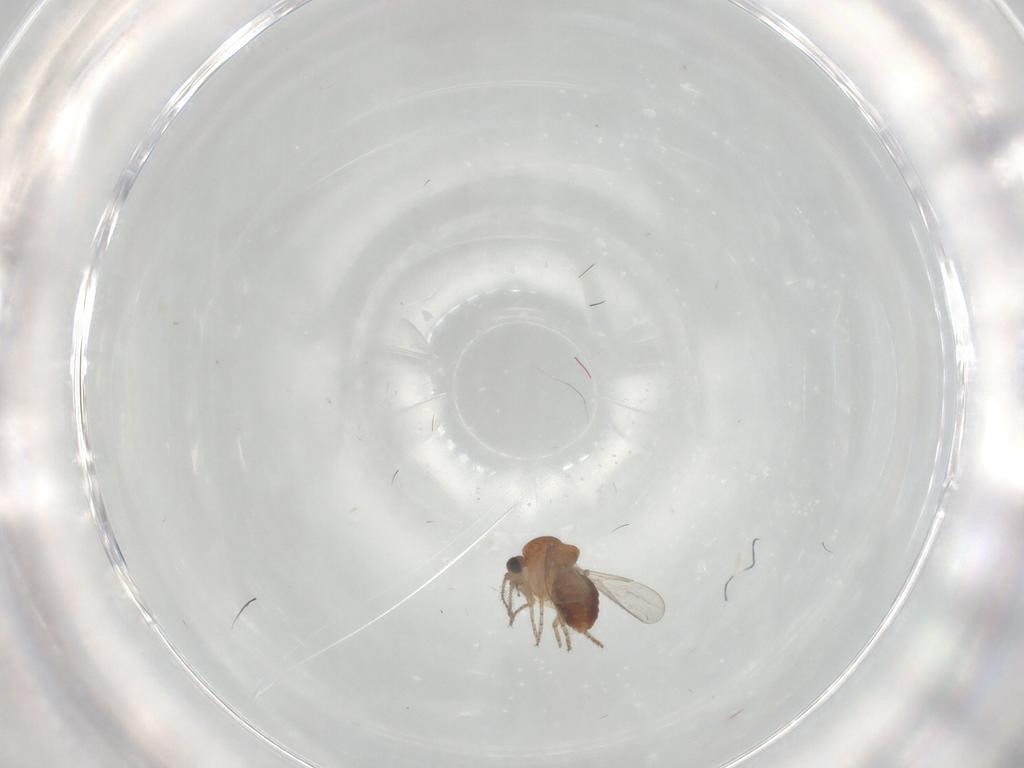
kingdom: Animalia
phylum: Arthropoda
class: Insecta
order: Diptera
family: Ceratopogonidae
